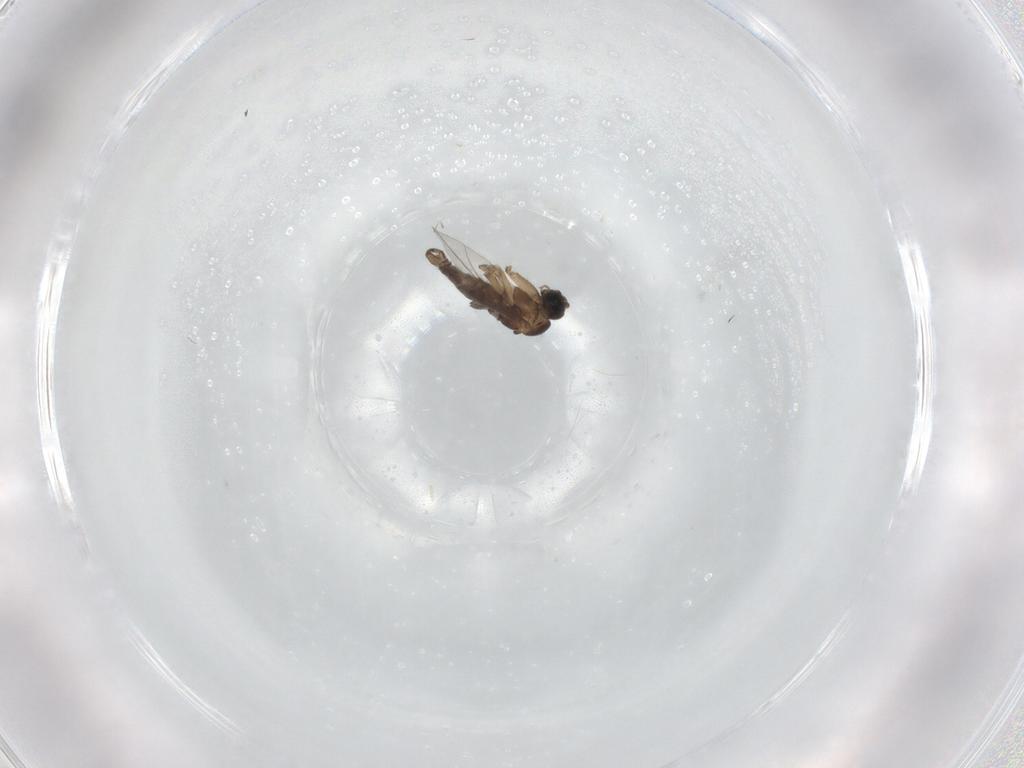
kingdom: Animalia
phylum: Arthropoda
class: Insecta
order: Diptera
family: Sciaridae
